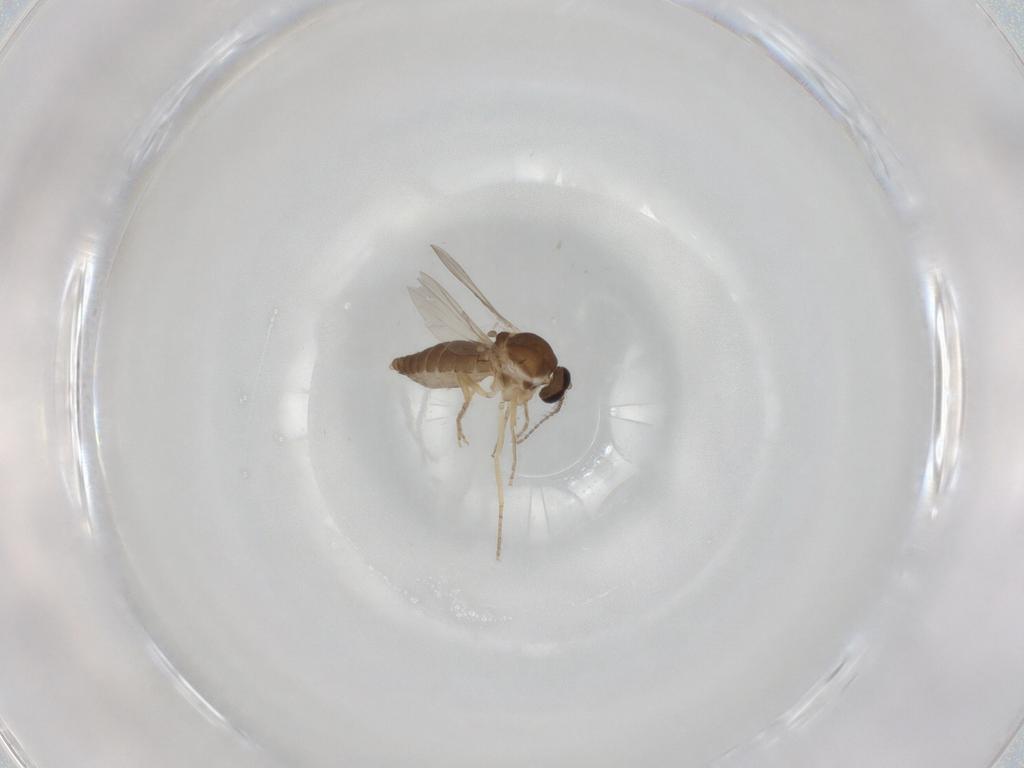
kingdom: Animalia
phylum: Arthropoda
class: Insecta
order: Diptera
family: Ceratopogonidae
